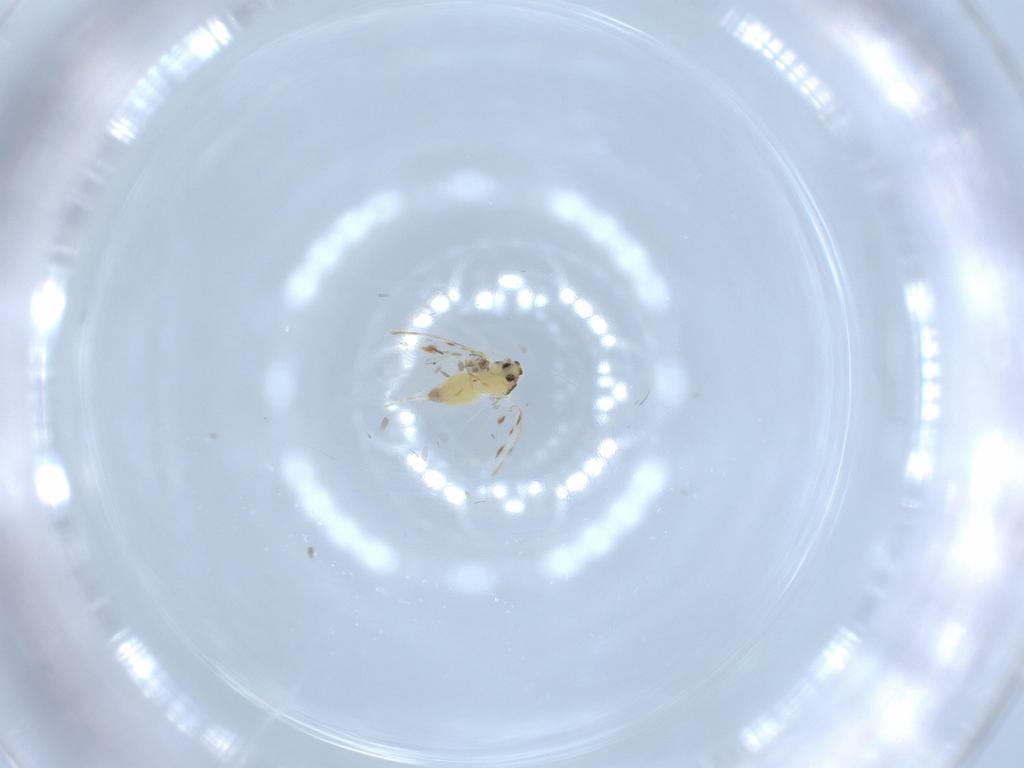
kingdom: Animalia
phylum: Arthropoda
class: Insecta
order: Hemiptera
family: Aleyrodidae
